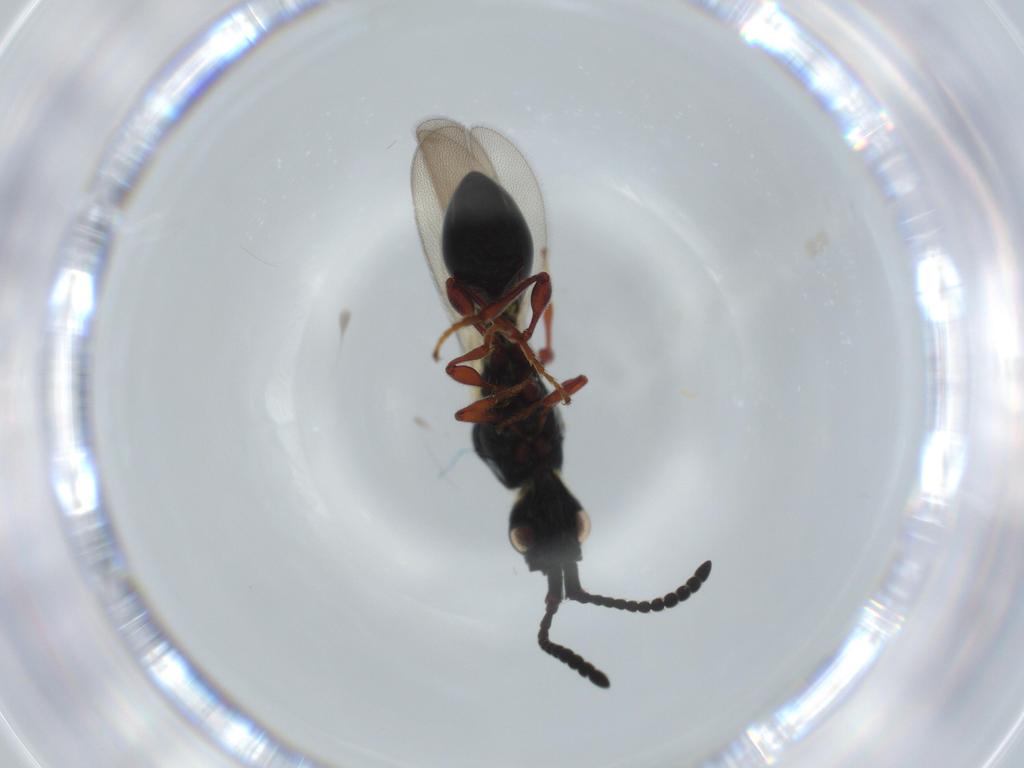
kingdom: Animalia
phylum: Arthropoda
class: Insecta
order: Hymenoptera
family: Diapriidae
